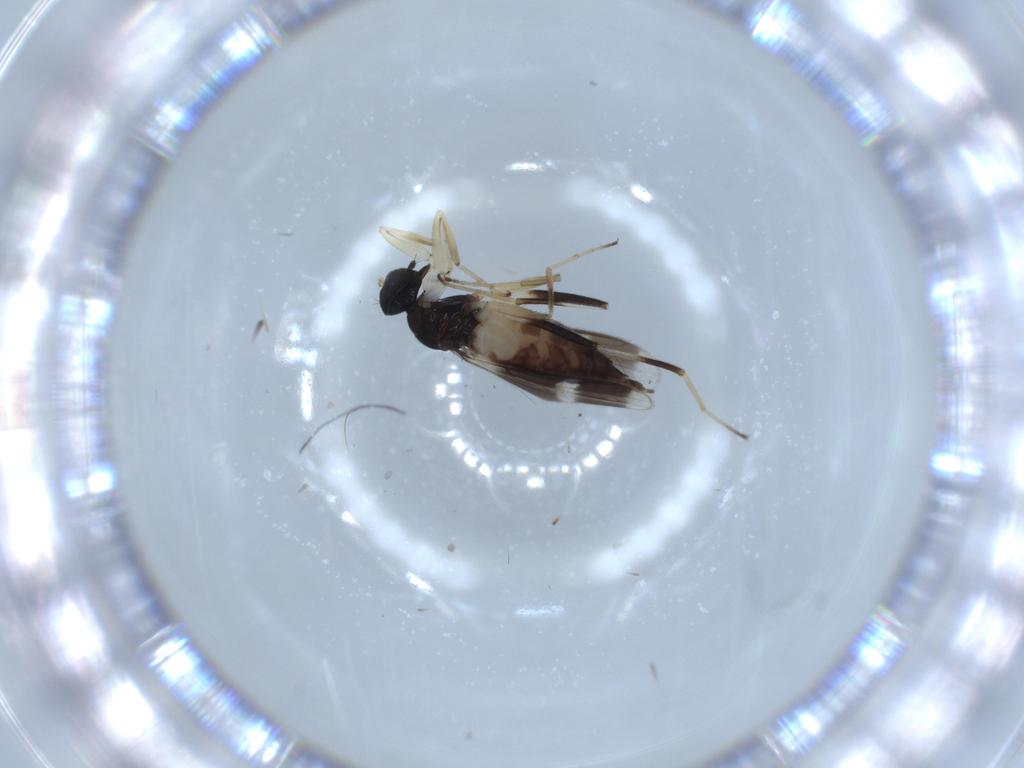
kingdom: Animalia
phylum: Arthropoda
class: Insecta
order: Diptera
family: Hybotidae
